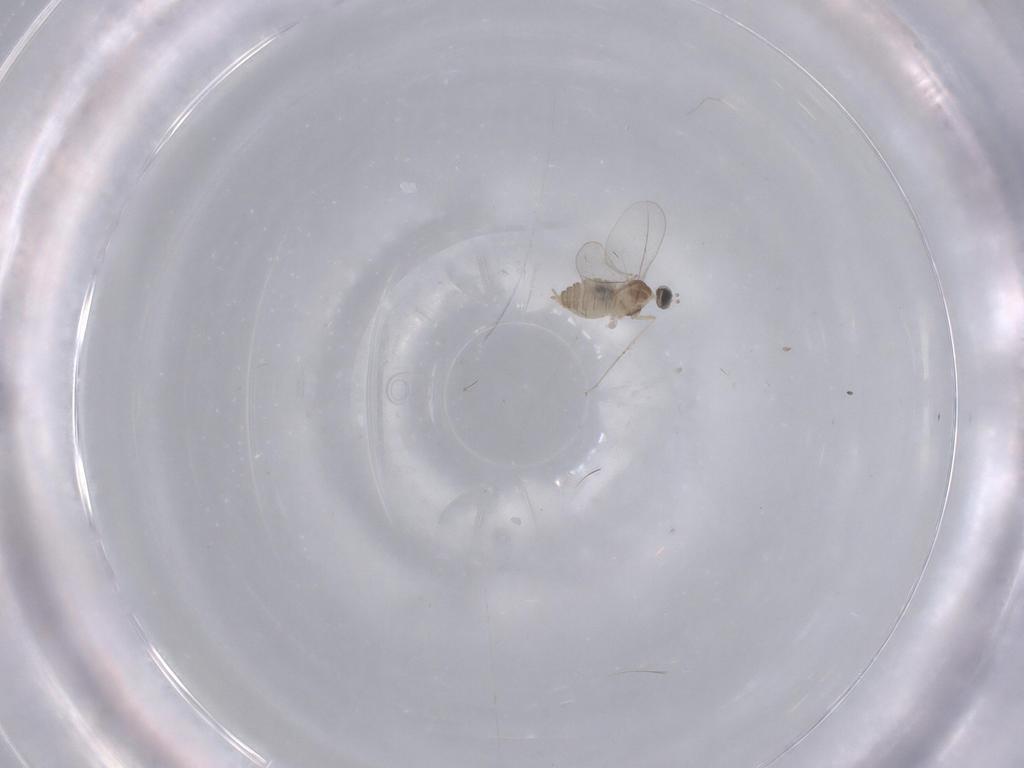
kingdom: Animalia
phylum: Arthropoda
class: Insecta
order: Diptera
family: Cecidomyiidae
